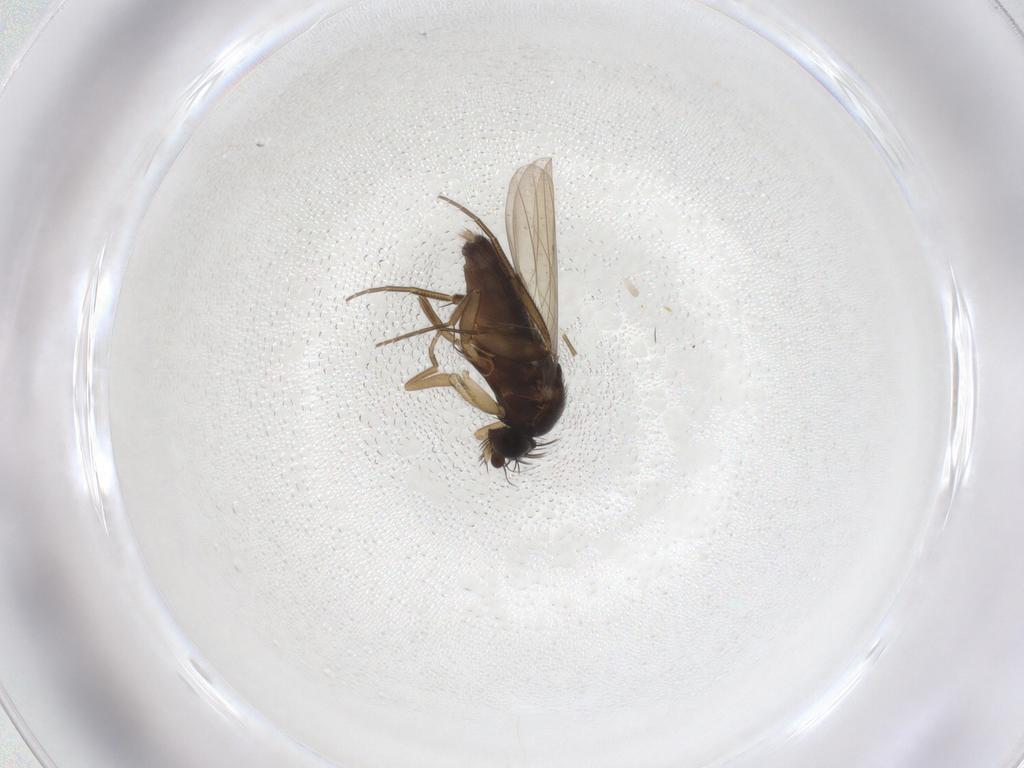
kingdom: Animalia
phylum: Arthropoda
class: Insecta
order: Diptera
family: Phoridae
